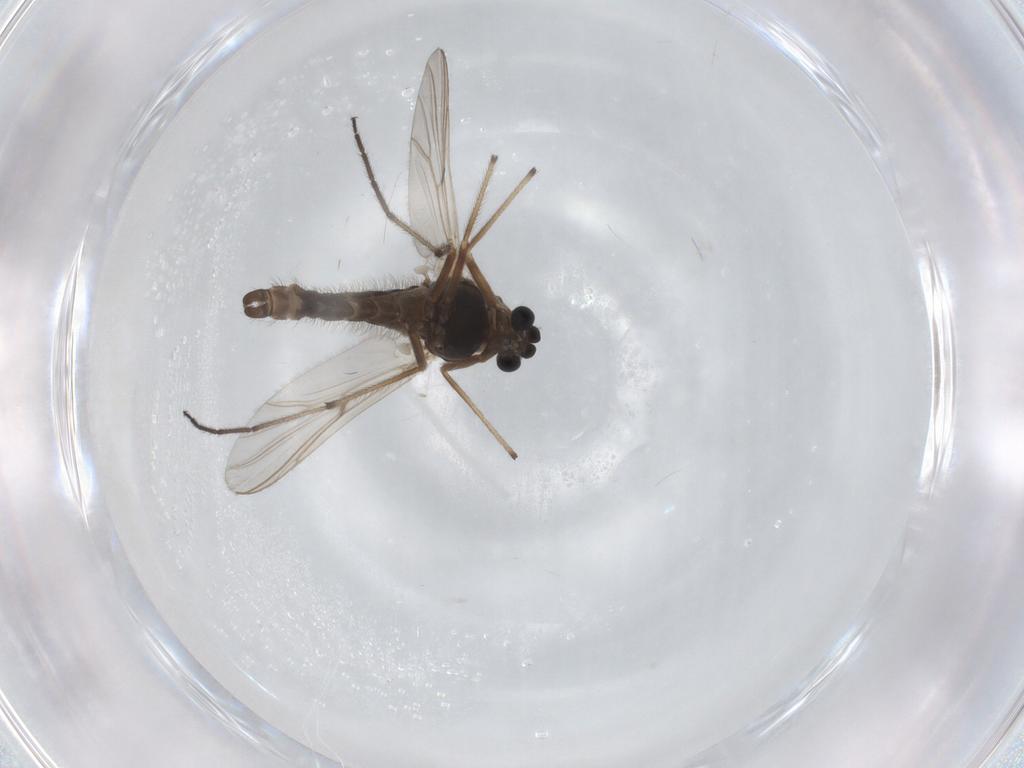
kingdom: Animalia
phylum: Arthropoda
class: Insecta
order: Diptera
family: Chironomidae
